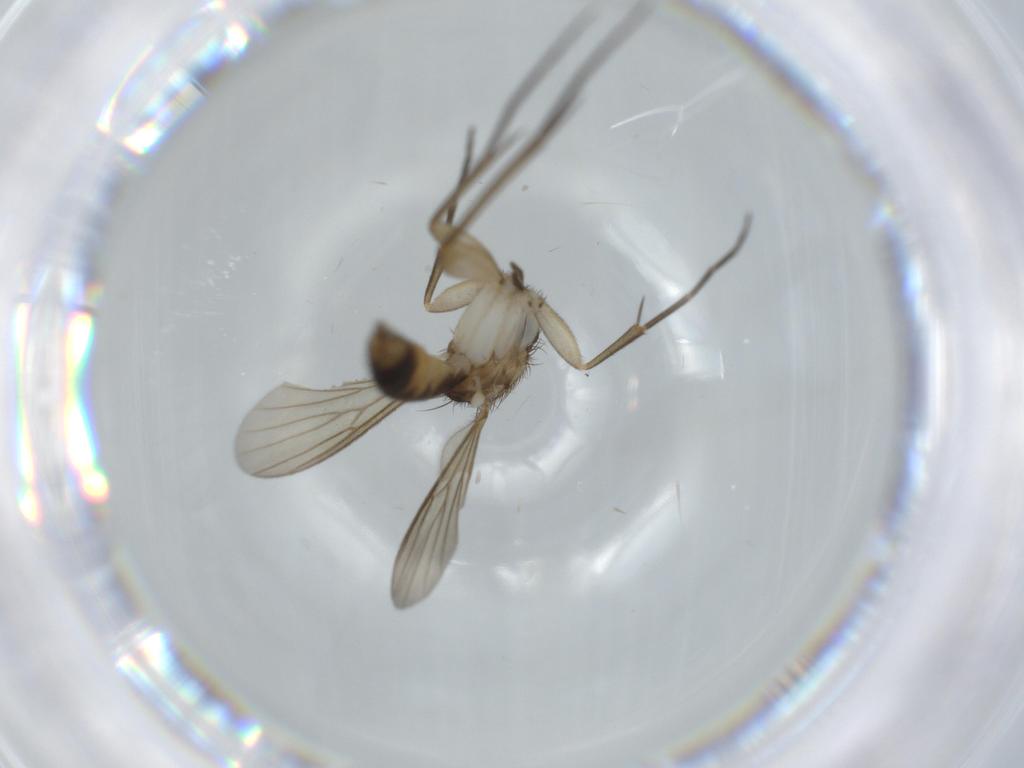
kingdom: Animalia
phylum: Arthropoda
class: Insecta
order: Diptera
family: Mycetophilidae
